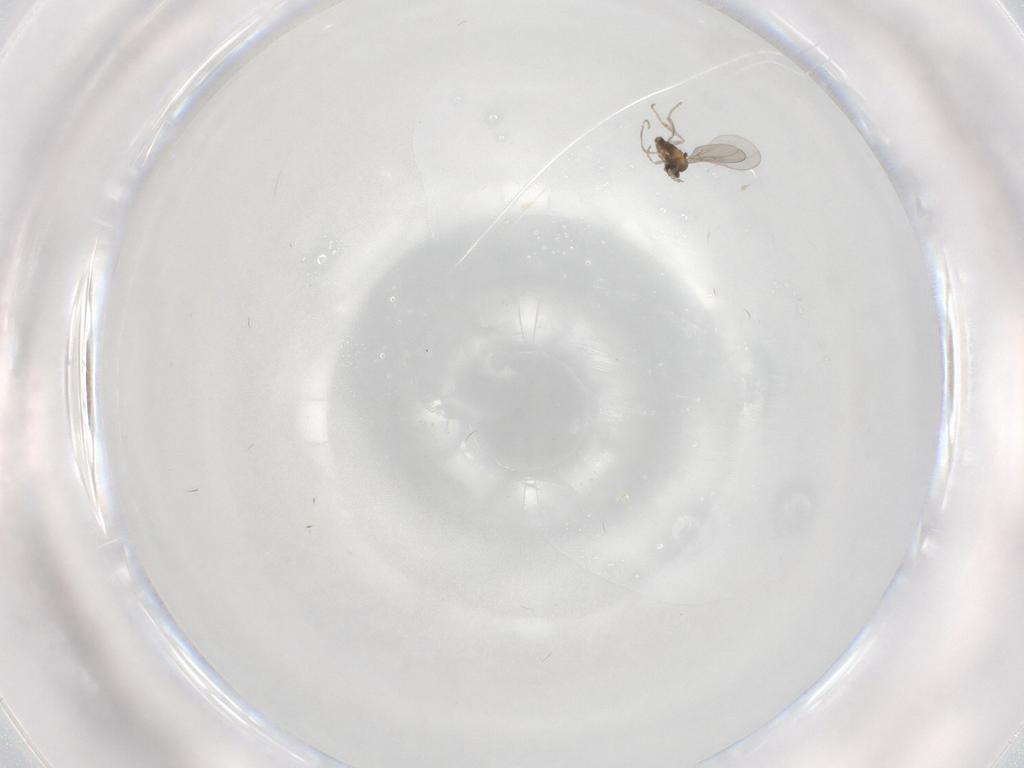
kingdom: Animalia
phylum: Arthropoda
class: Insecta
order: Diptera
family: Cecidomyiidae
